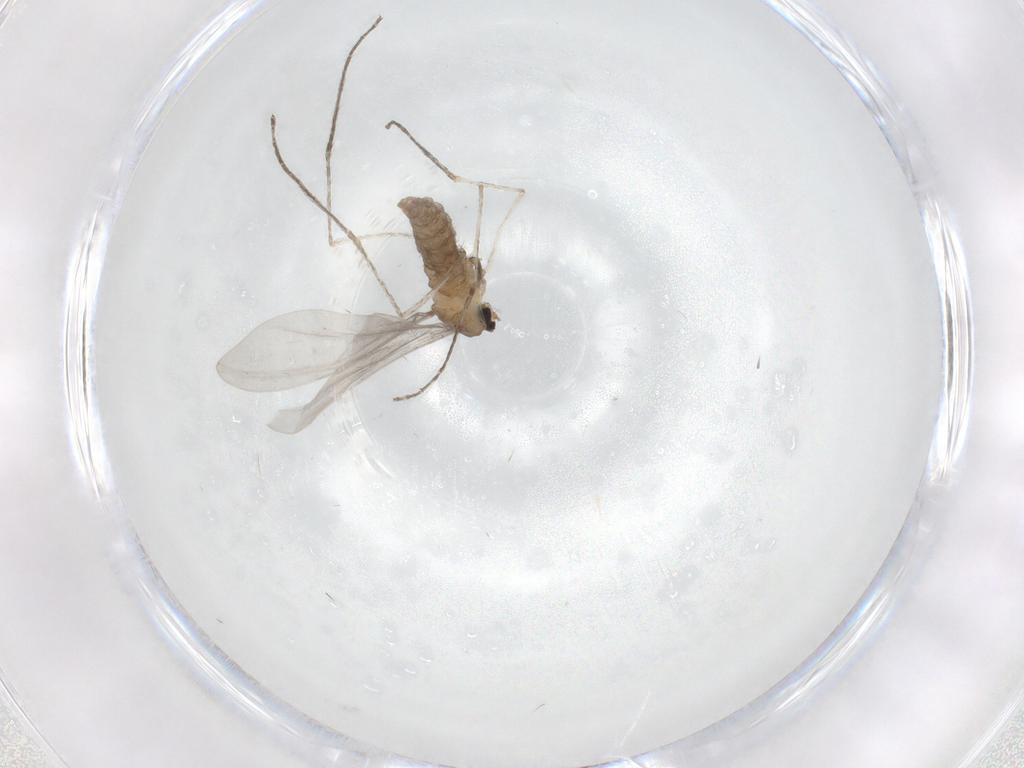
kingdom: Animalia
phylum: Arthropoda
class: Insecta
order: Diptera
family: Cecidomyiidae
